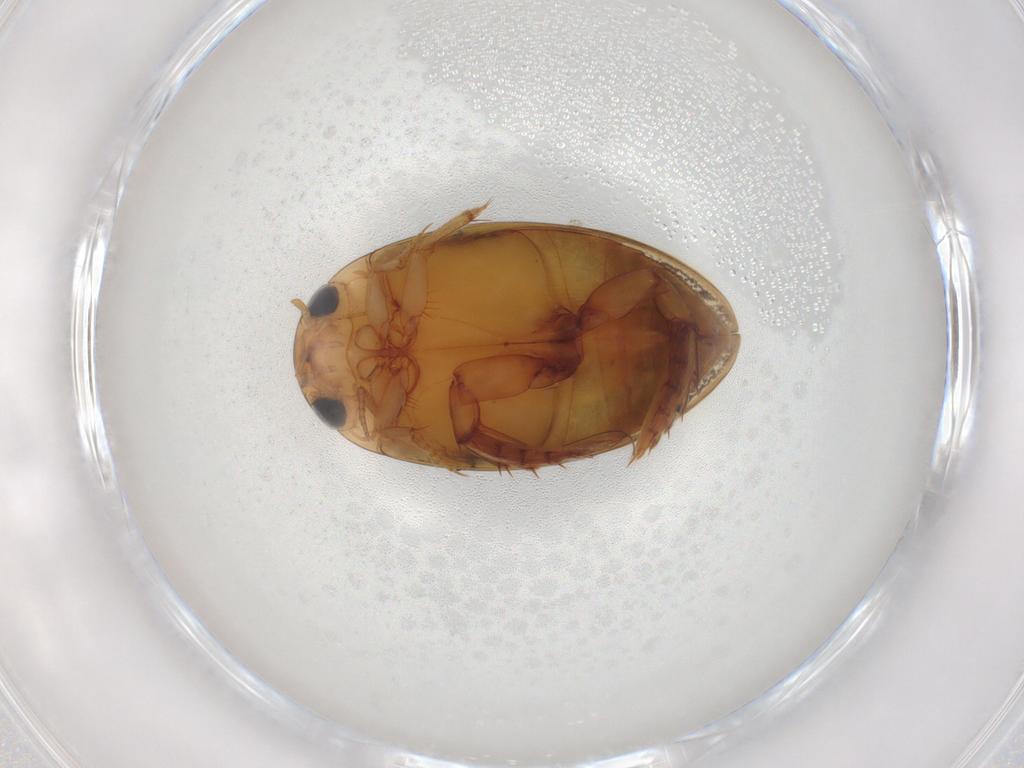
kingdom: Animalia
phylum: Arthropoda
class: Insecta
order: Coleoptera
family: Dytiscidae
